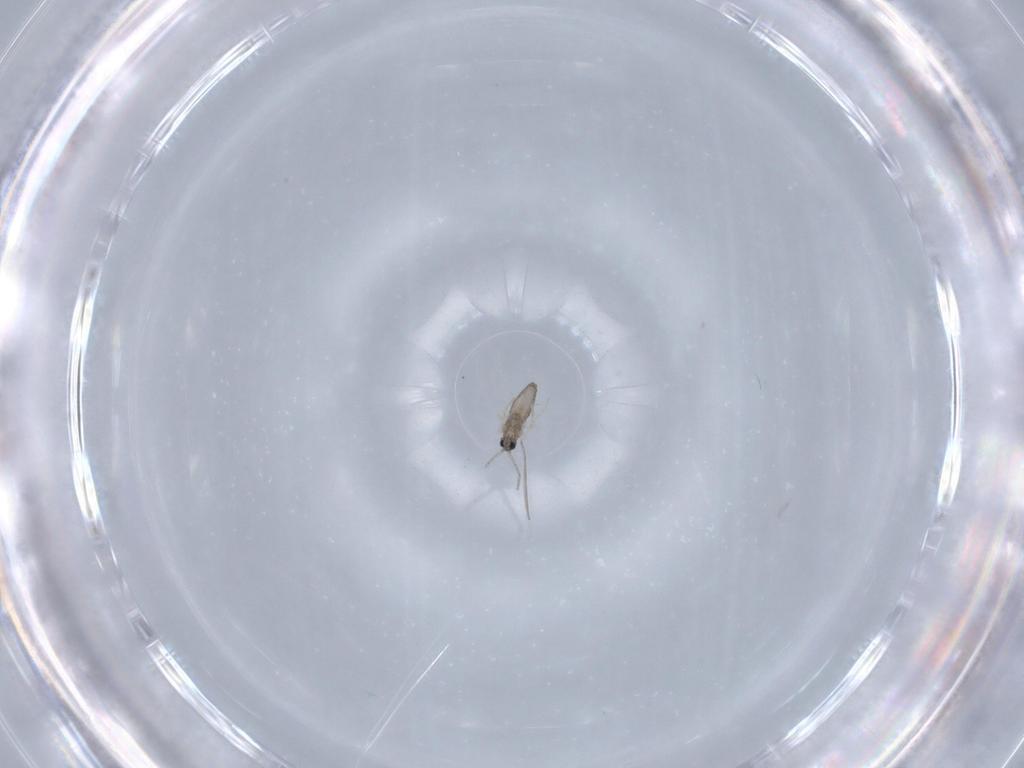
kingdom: Animalia
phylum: Arthropoda
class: Insecta
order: Diptera
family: Cecidomyiidae
